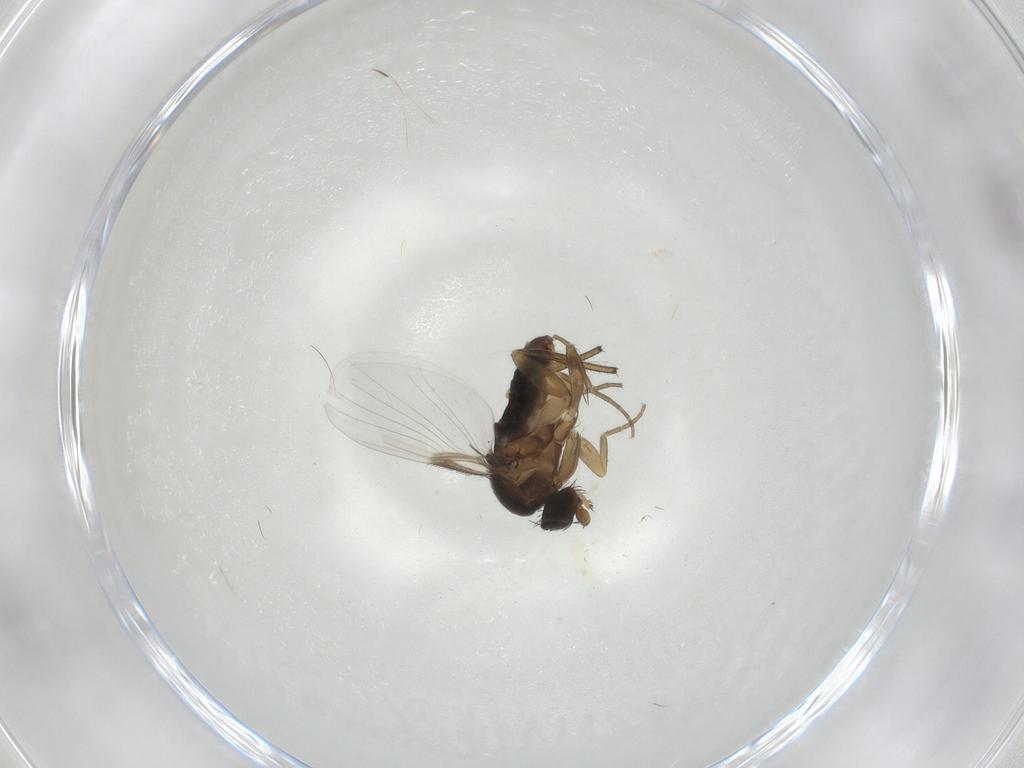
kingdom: Animalia
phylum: Arthropoda
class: Insecta
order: Diptera
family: Phoridae
